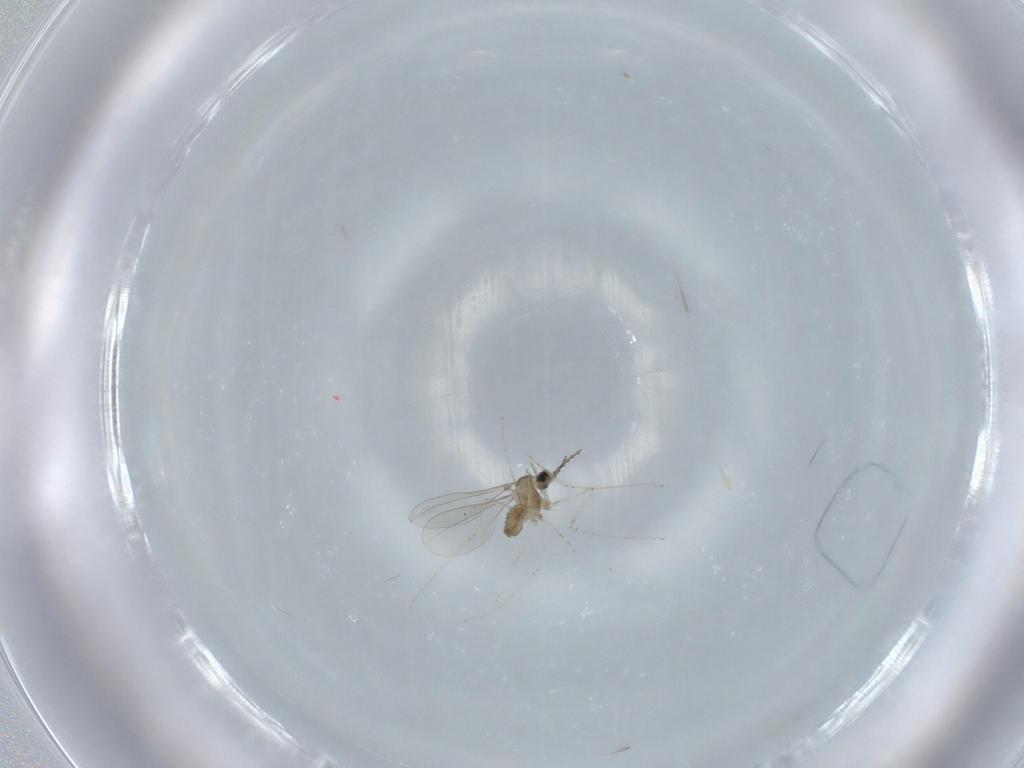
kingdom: Animalia
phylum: Arthropoda
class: Insecta
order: Diptera
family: Cecidomyiidae
